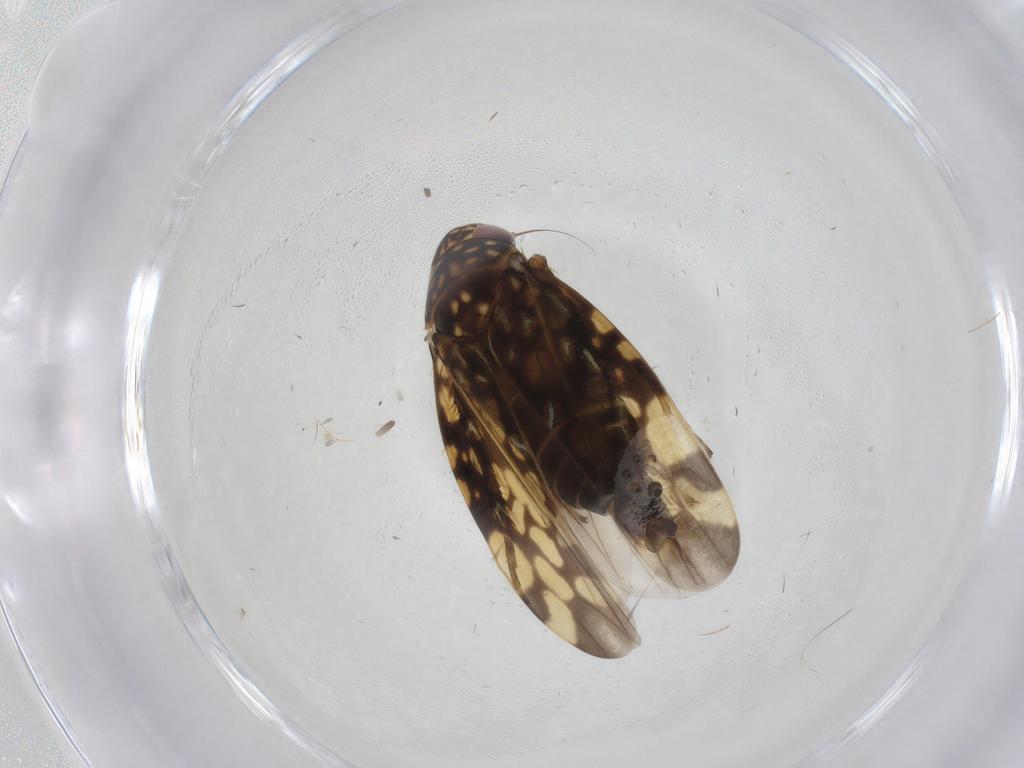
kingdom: Animalia
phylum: Arthropoda
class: Insecta
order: Hemiptera
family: Cicadellidae
